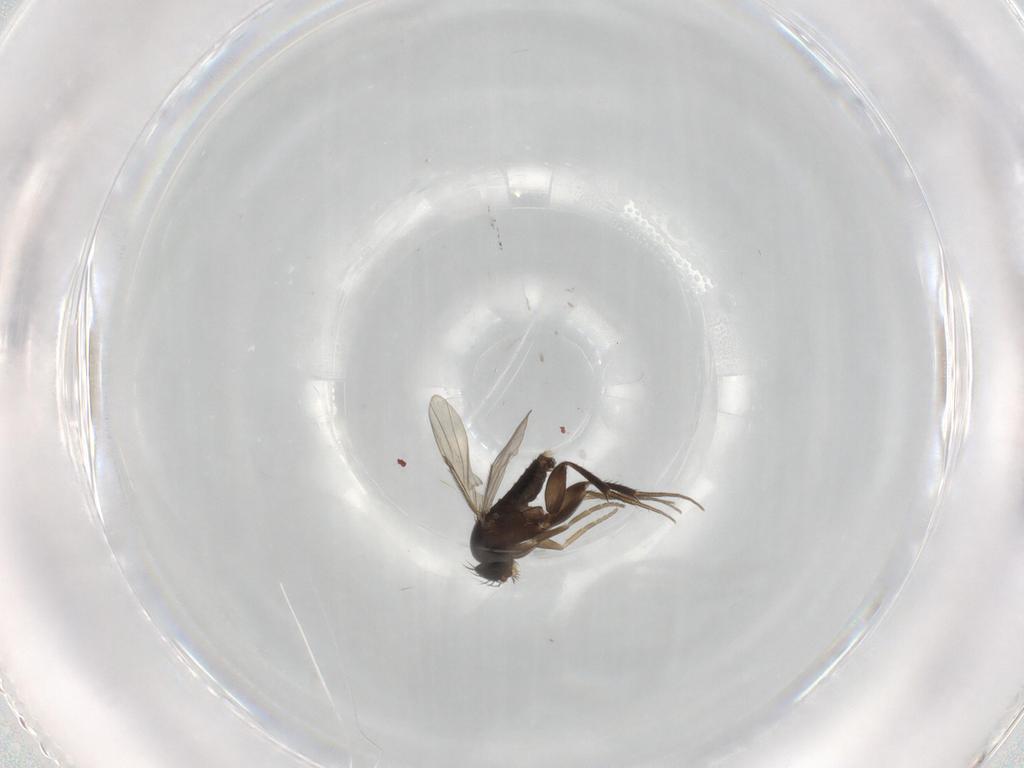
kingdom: Animalia
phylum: Arthropoda
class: Insecta
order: Diptera
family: Phoridae
